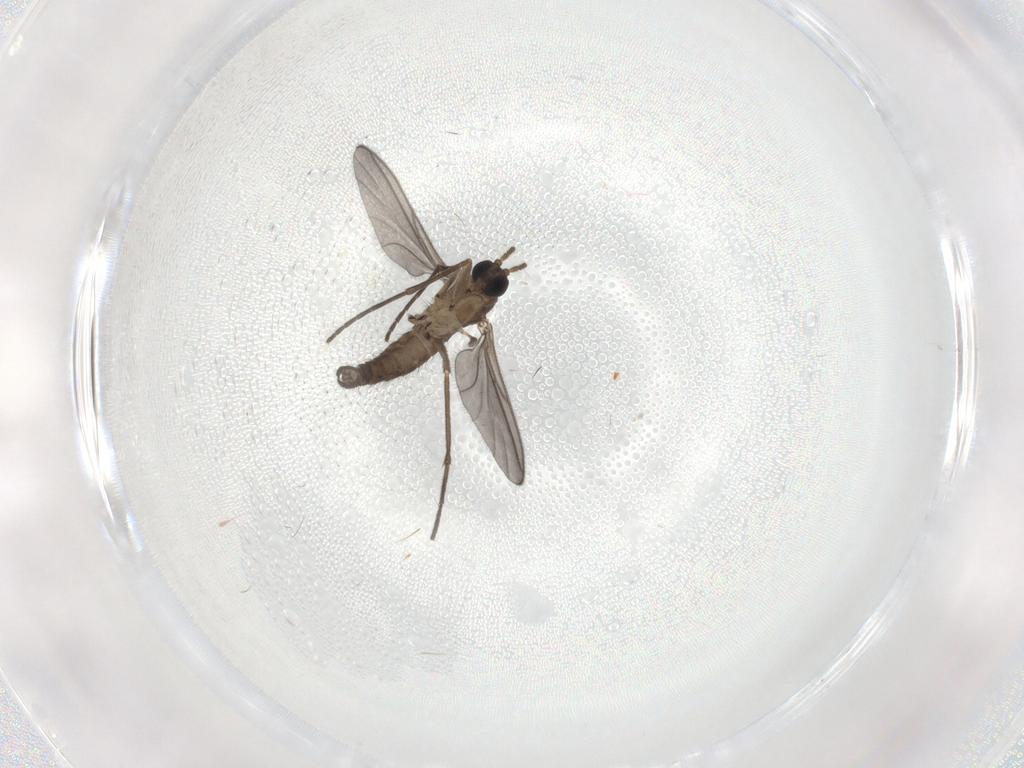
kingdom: Animalia
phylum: Arthropoda
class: Insecta
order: Diptera
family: Sciaridae
